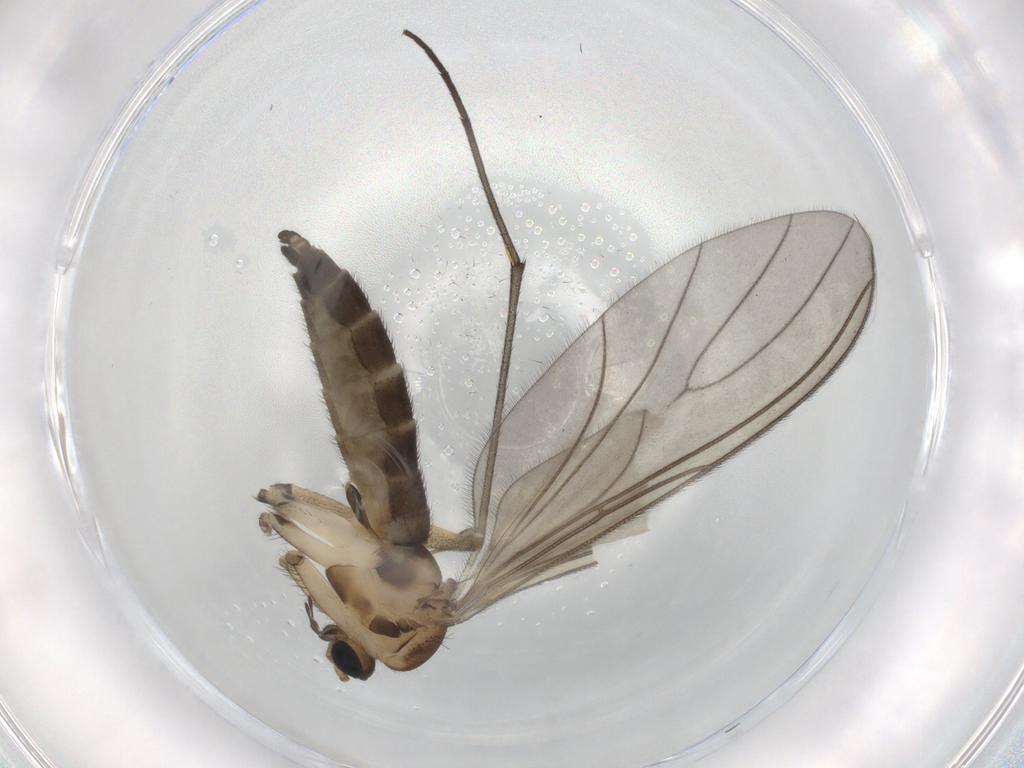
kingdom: Animalia
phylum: Arthropoda
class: Insecta
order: Diptera
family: Sciaridae
